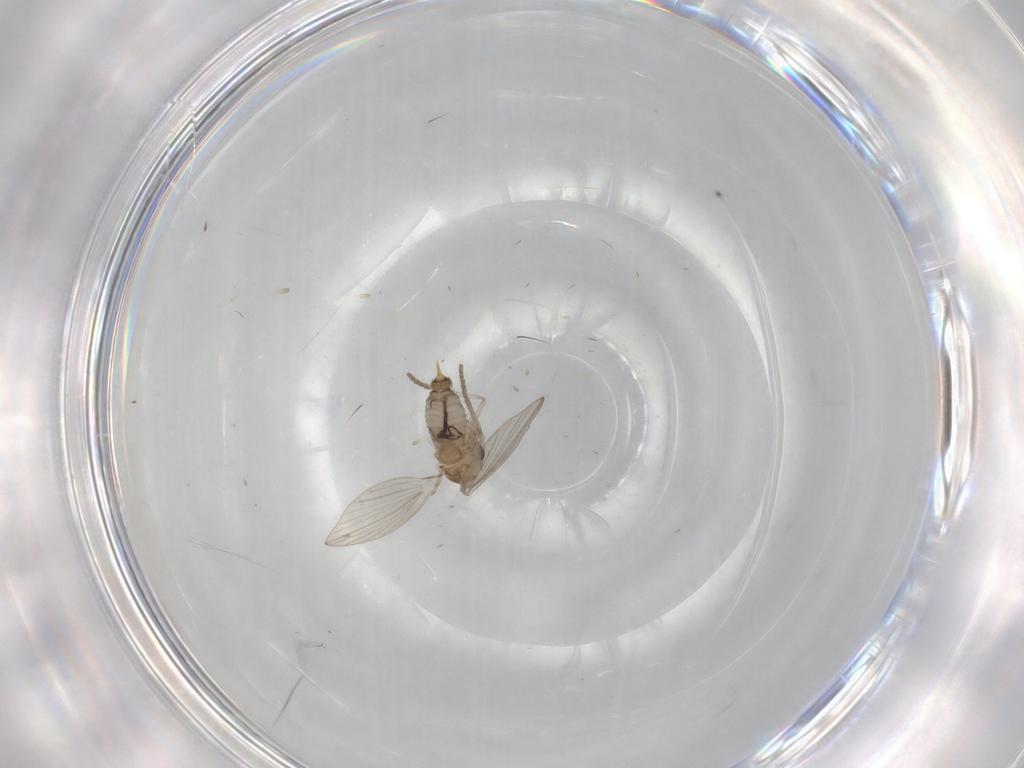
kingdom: Animalia
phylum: Arthropoda
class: Insecta
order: Diptera
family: Psychodidae
